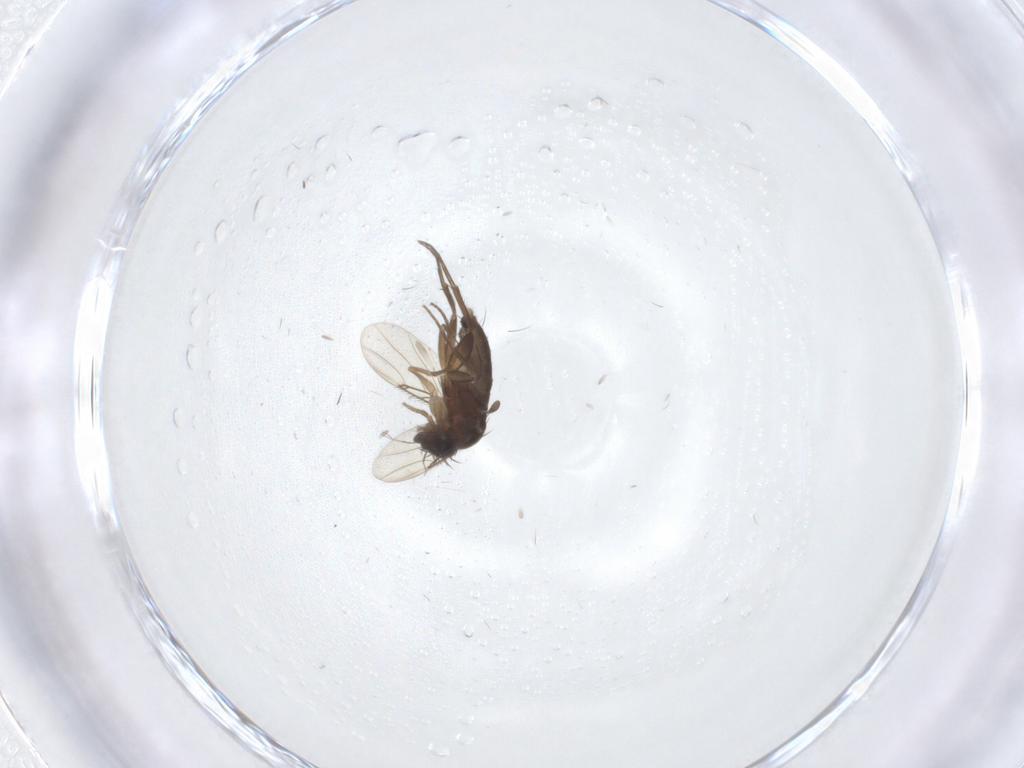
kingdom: Animalia
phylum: Arthropoda
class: Insecta
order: Diptera
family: Phoridae
